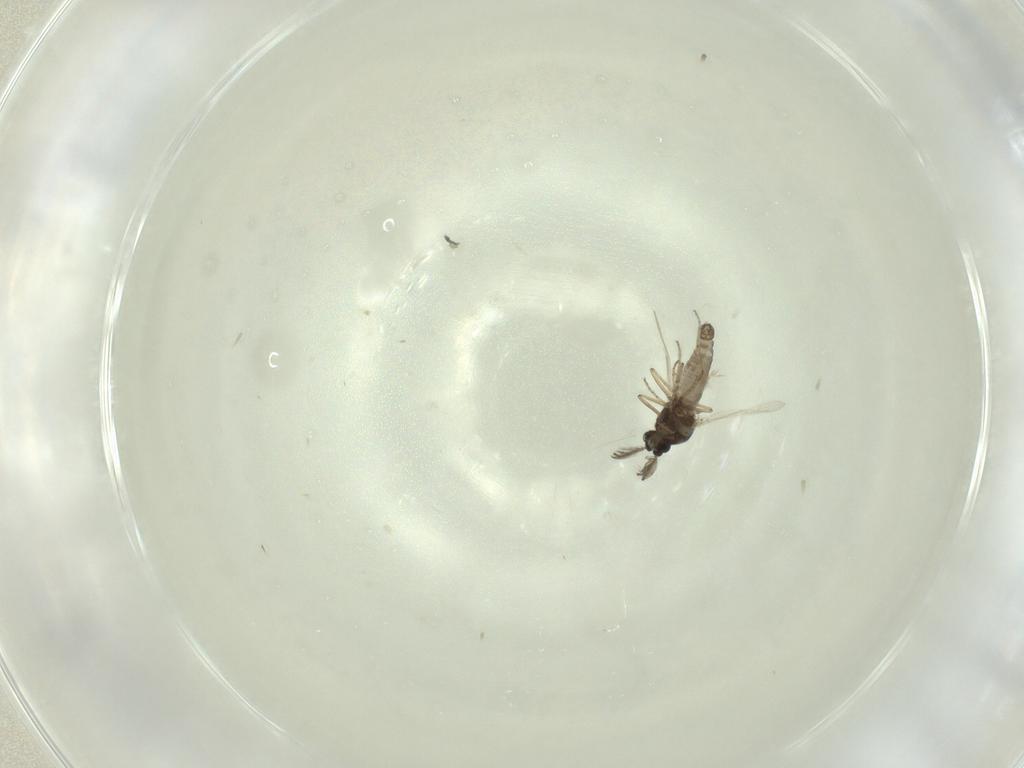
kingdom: Animalia
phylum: Arthropoda
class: Insecta
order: Diptera
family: Ceratopogonidae
